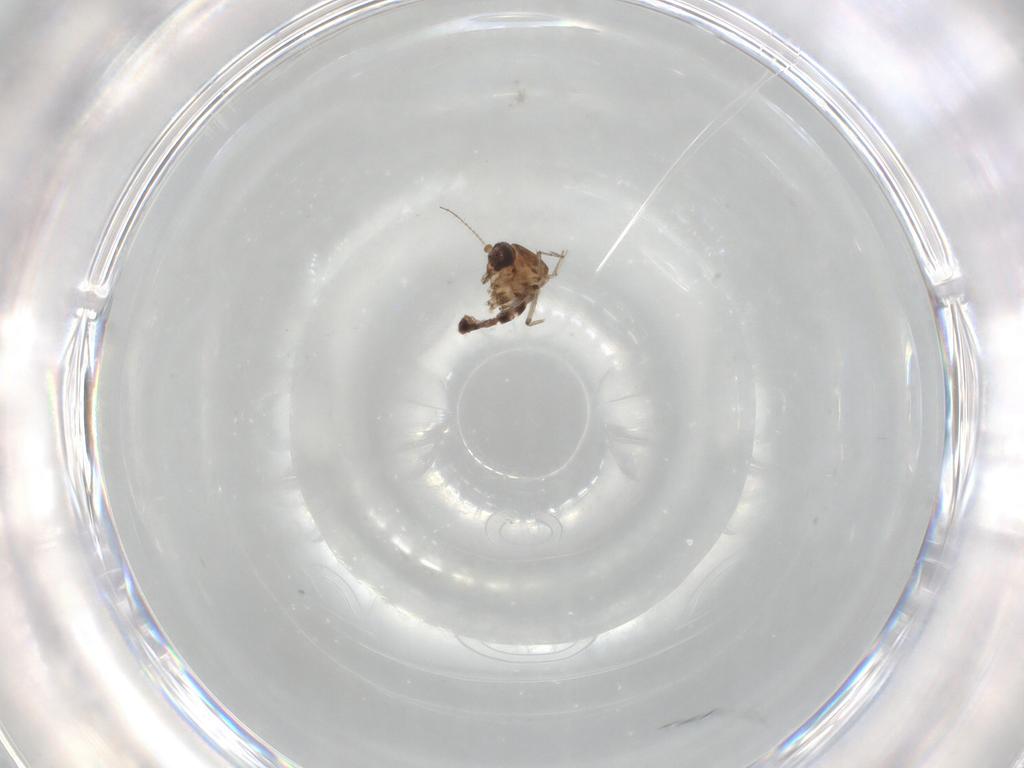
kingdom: Animalia
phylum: Arthropoda
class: Insecta
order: Diptera
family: Ceratopogonidae
